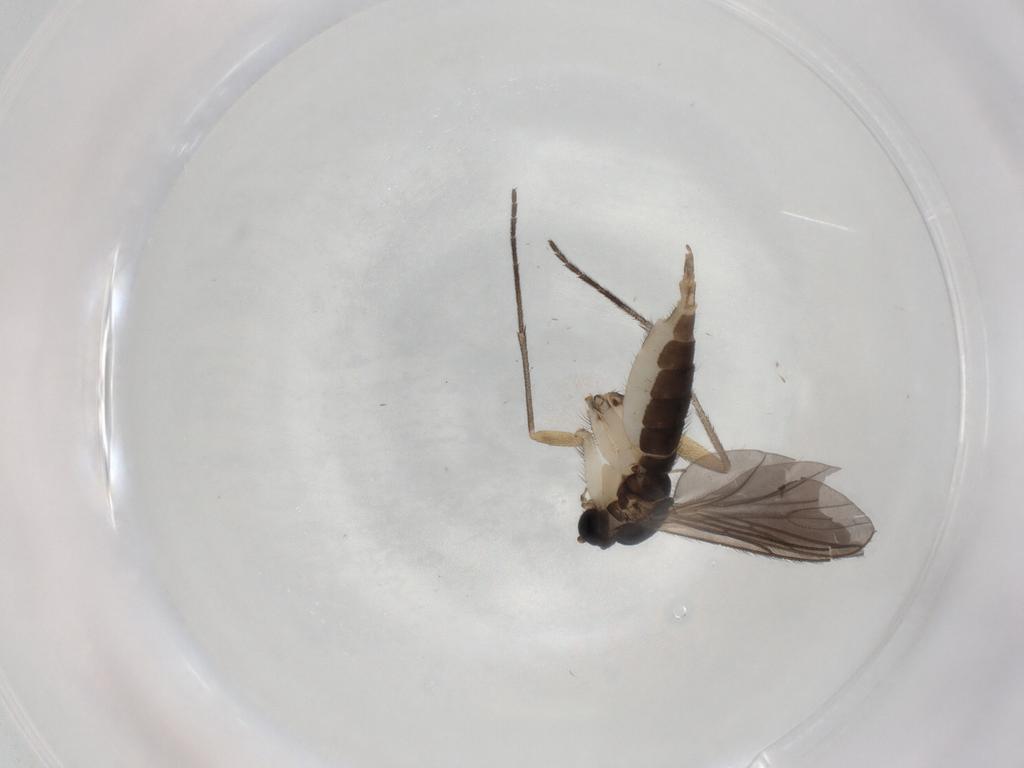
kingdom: Animalia
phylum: Arthropoda
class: Insecta
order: Diptera
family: Sciaridae
